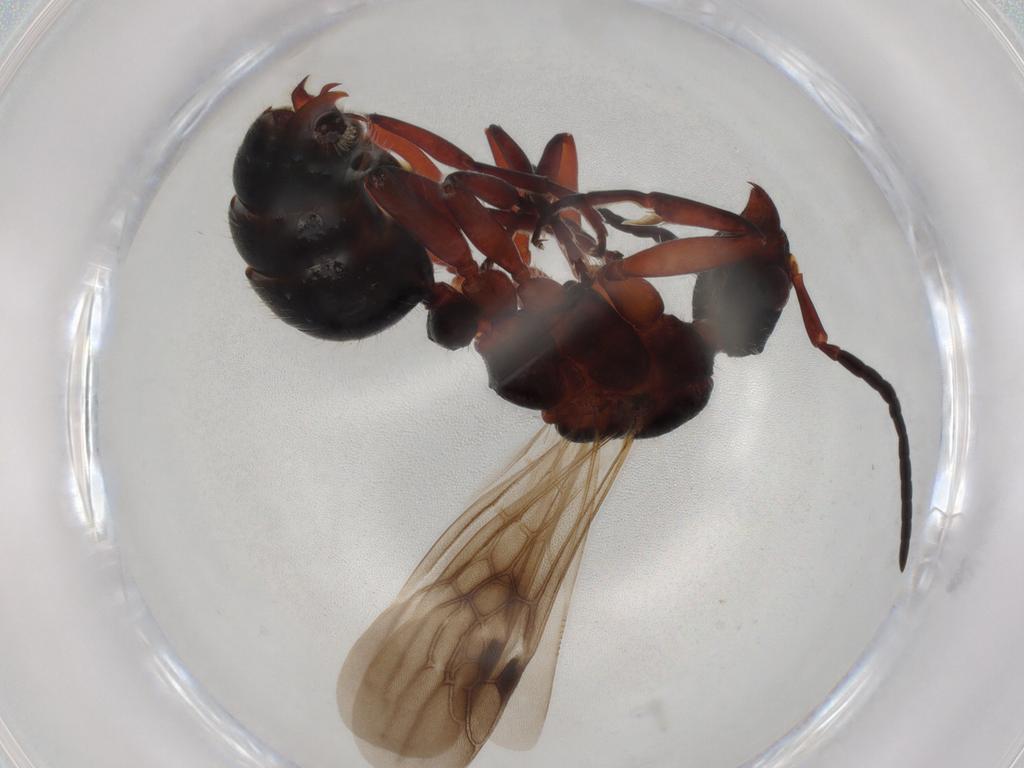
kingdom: Animalia
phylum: Arthropoda
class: Insecta
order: Hymenoptera
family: Formicidae
